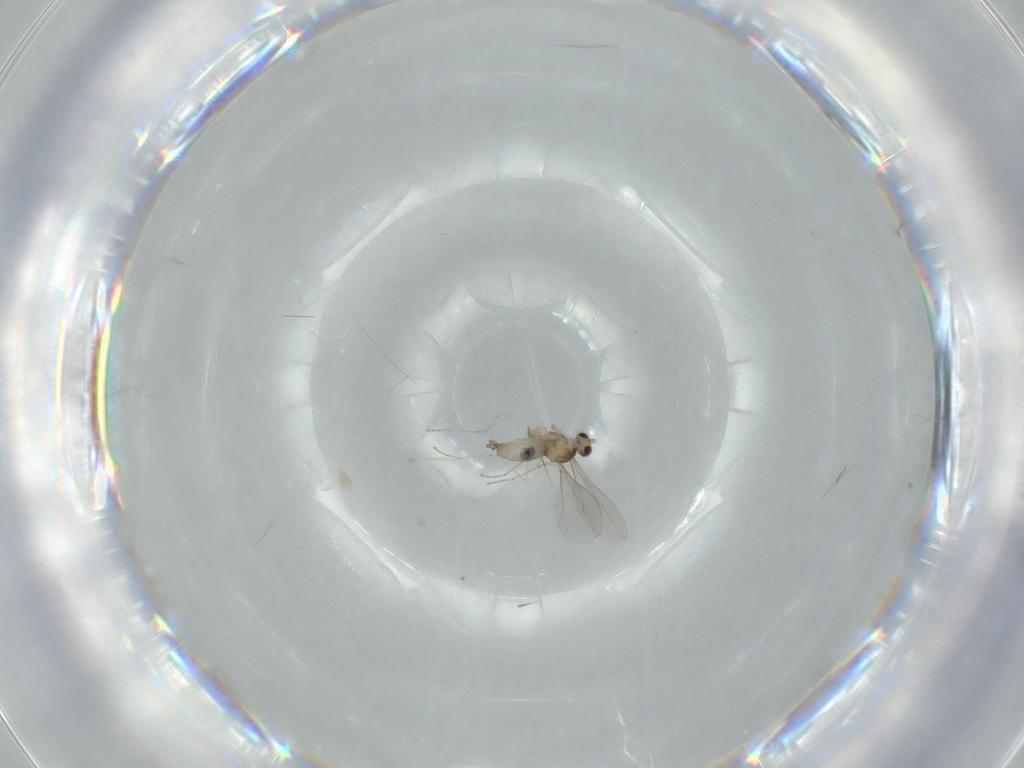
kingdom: Animalia
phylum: Arthropoda
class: Insecta
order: Diptera
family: Cecidomyiidae
